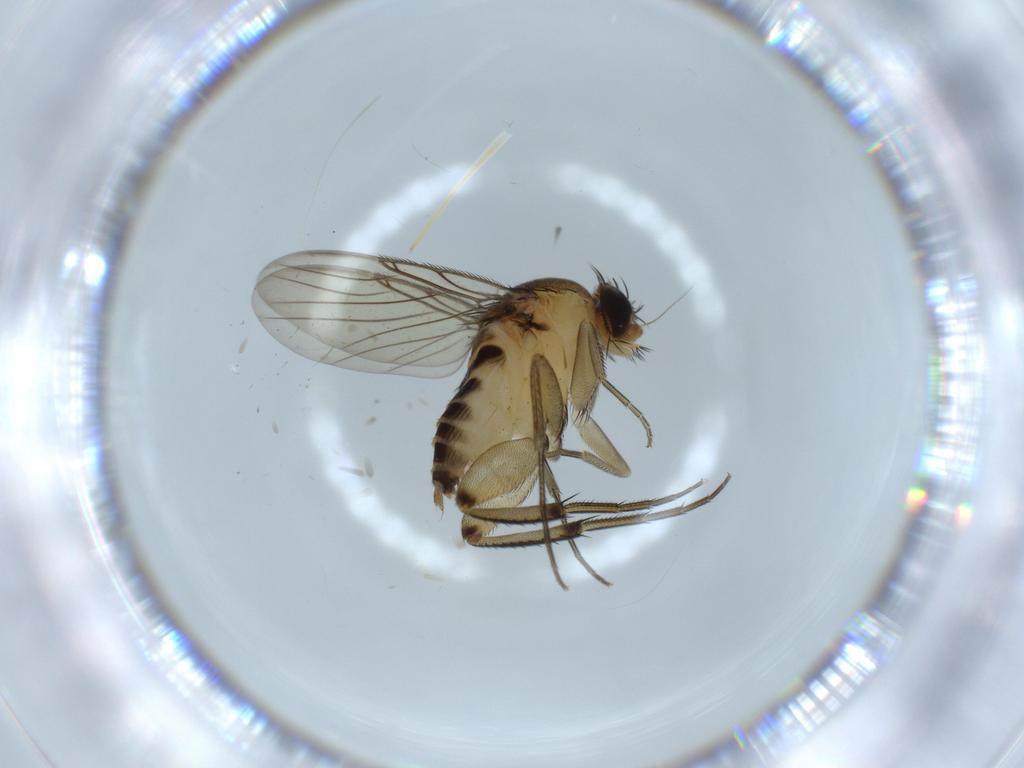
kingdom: Animalia
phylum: Arthropoda
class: Insecta
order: Diptera
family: Phoridae
